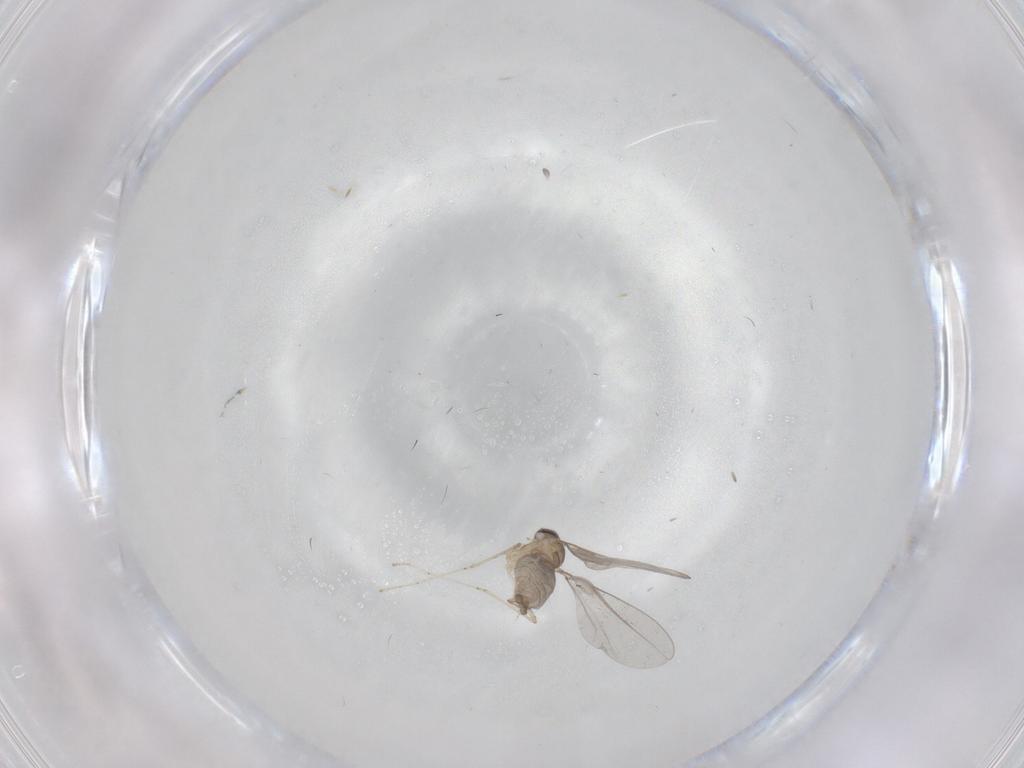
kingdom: Animalia
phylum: Arthropoda
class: Insecta
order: Diptera
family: Cecidomyiidae
